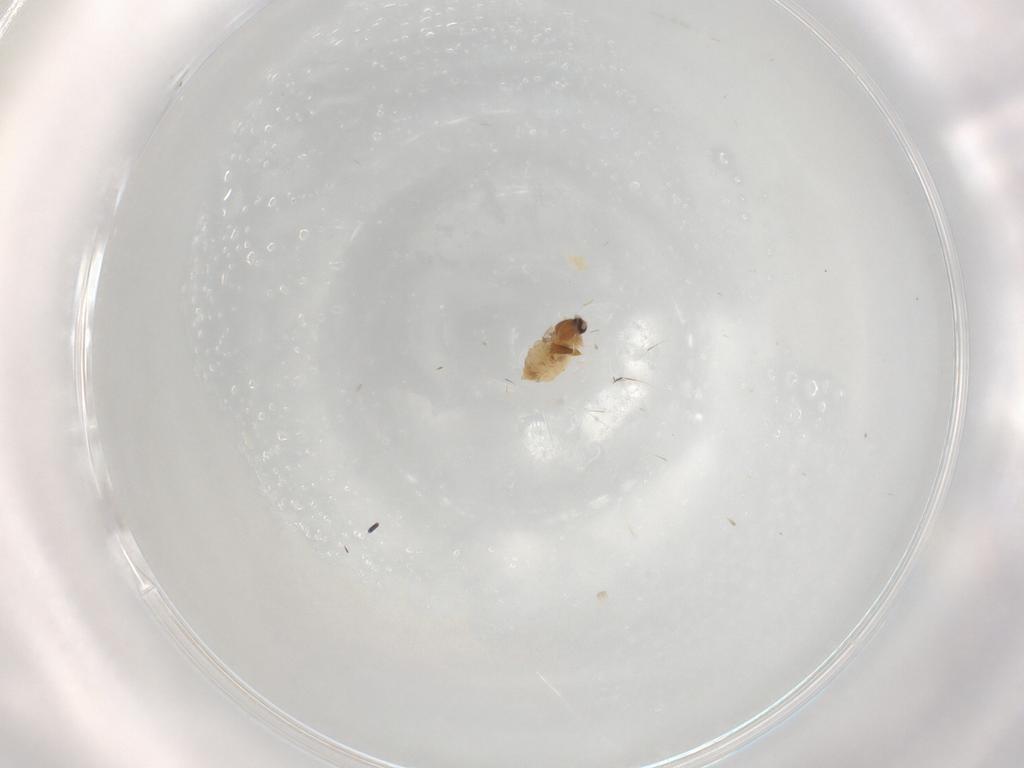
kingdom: Animalia
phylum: Arthropoda
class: Insecta
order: Diptera
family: Cecidomyiidae
